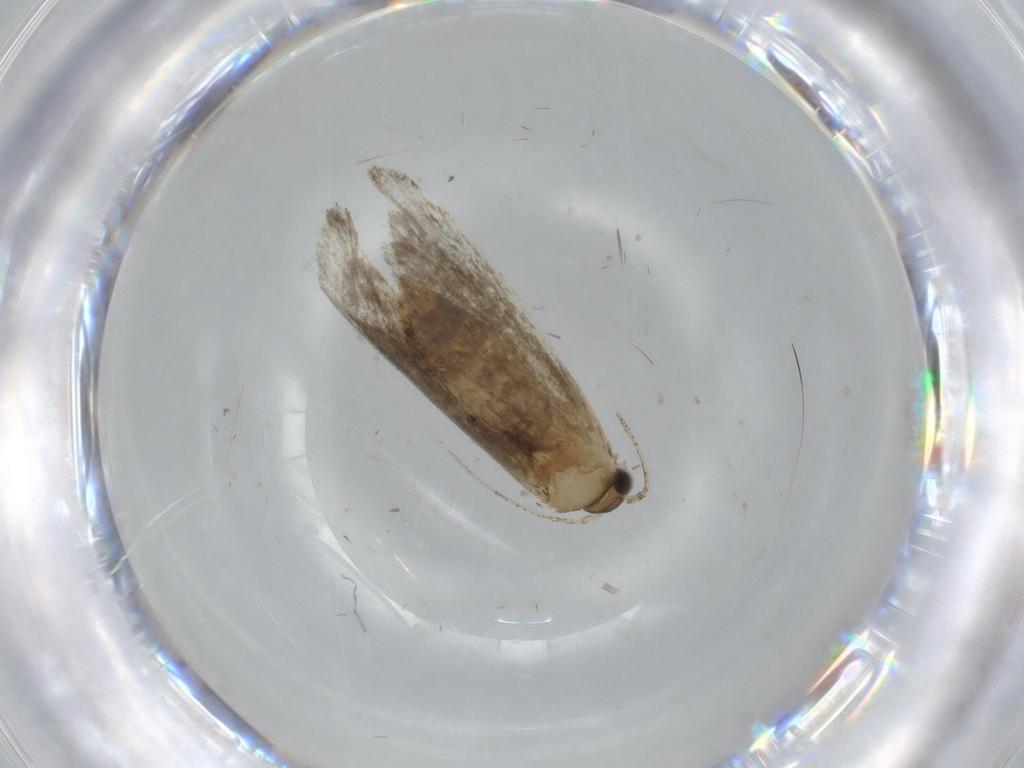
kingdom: Animalia
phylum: Arthropoda
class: Insecta
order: Lepidoptera
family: Tineidae
